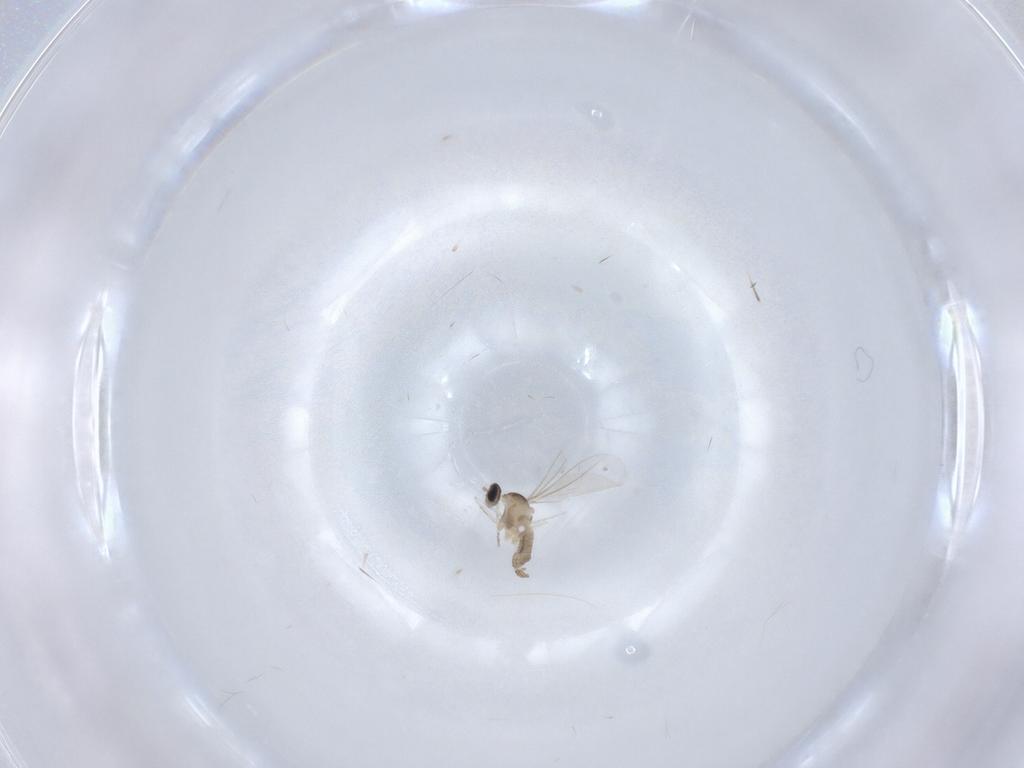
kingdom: Animalia
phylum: Arthropoda
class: Insecta
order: Diptera
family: Cecidomyiidae
